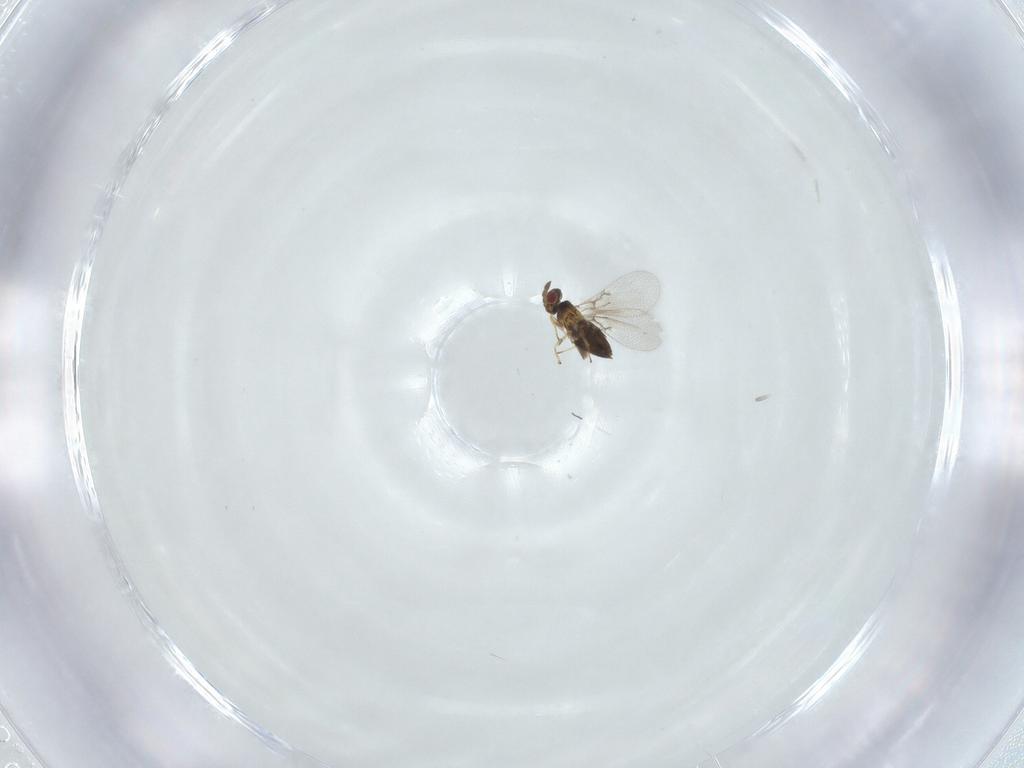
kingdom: Animalia
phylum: Arthropoda
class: Insecta
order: Hymenoptera
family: Trichogrammatidae
